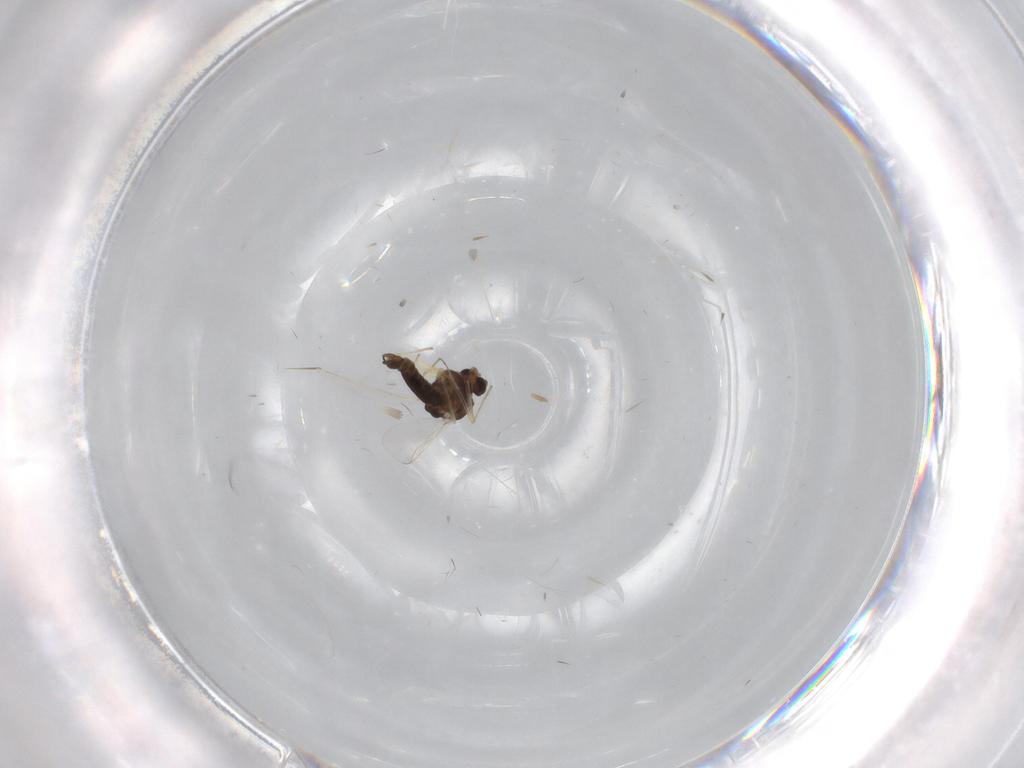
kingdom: Animalia
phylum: Arthropoda
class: Insecta
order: Diptera
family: Chironomidae
